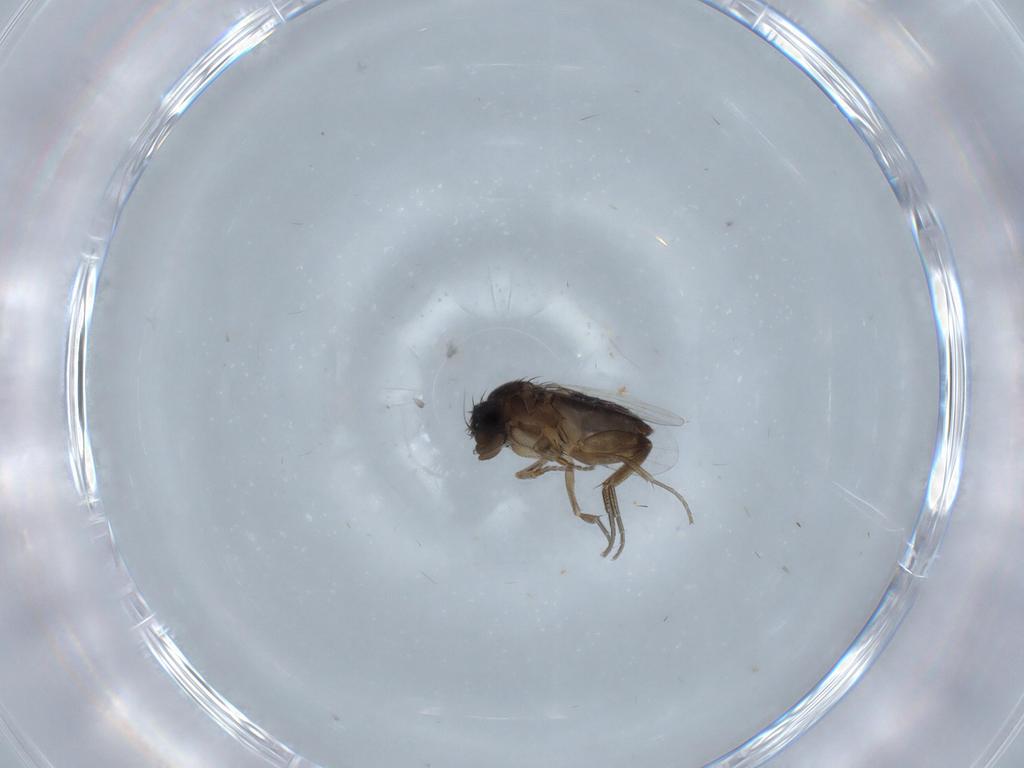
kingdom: Animalia
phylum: Arthropoda
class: Insecta
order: Diptera
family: Phoridae
